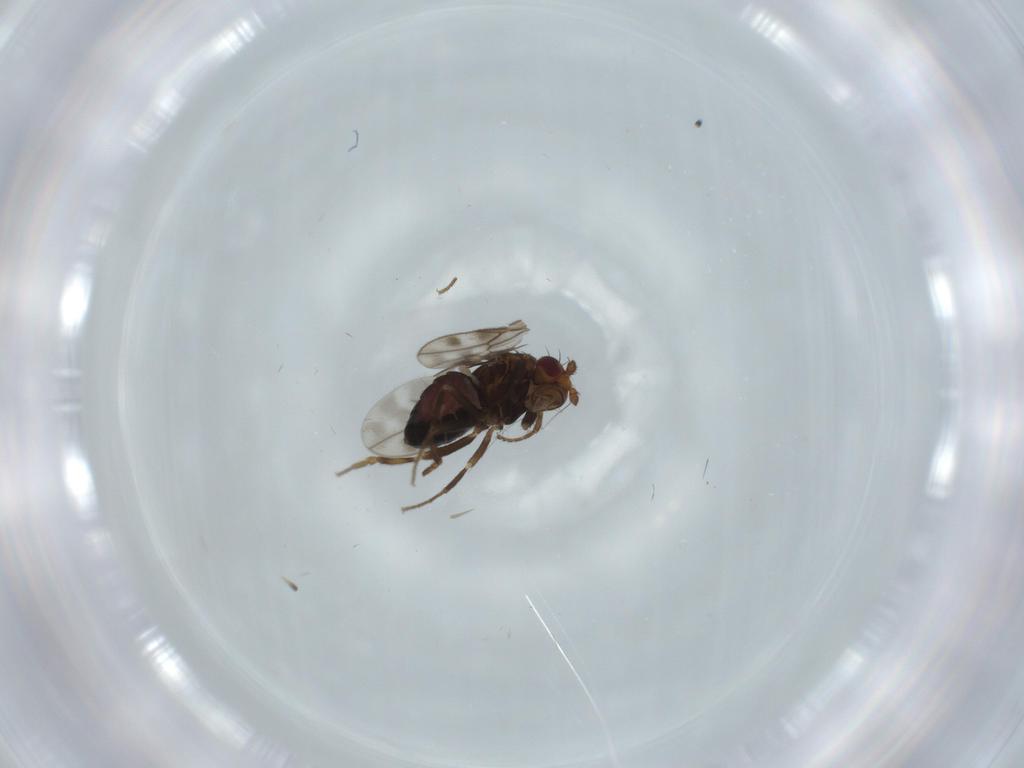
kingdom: Animalia
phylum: Arthropoda
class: Insecta
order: Diptera
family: Sphaeroceridae
